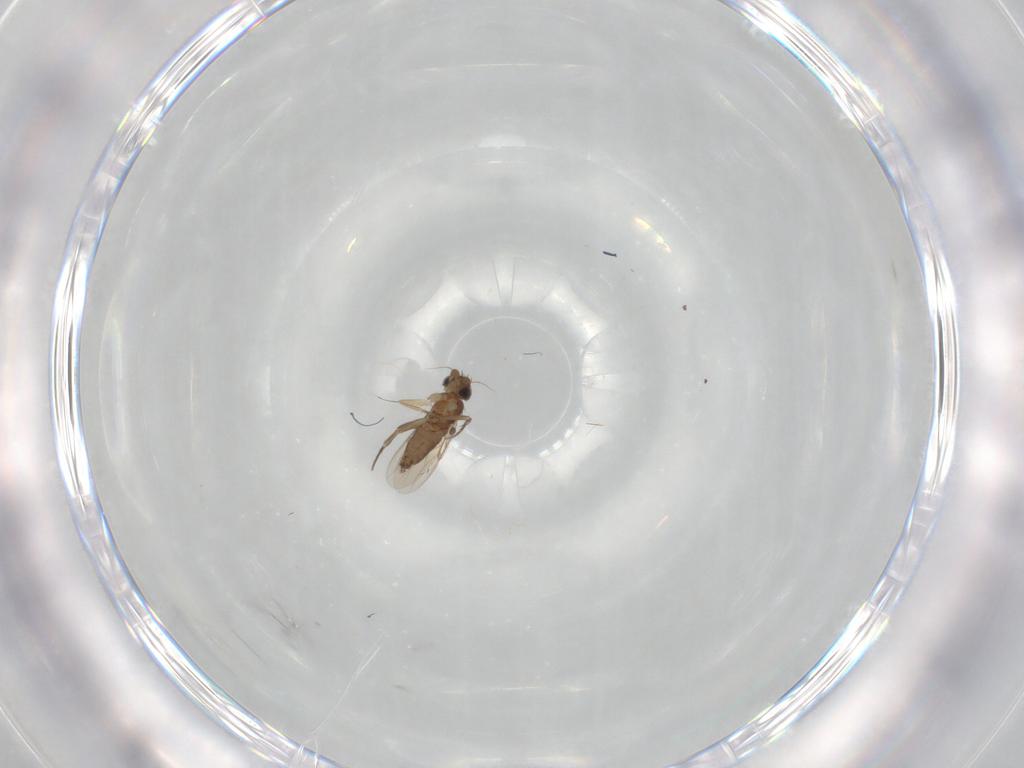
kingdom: Animalia
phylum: Arthropoda
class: Insecta
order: Diptera
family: Phoridae
